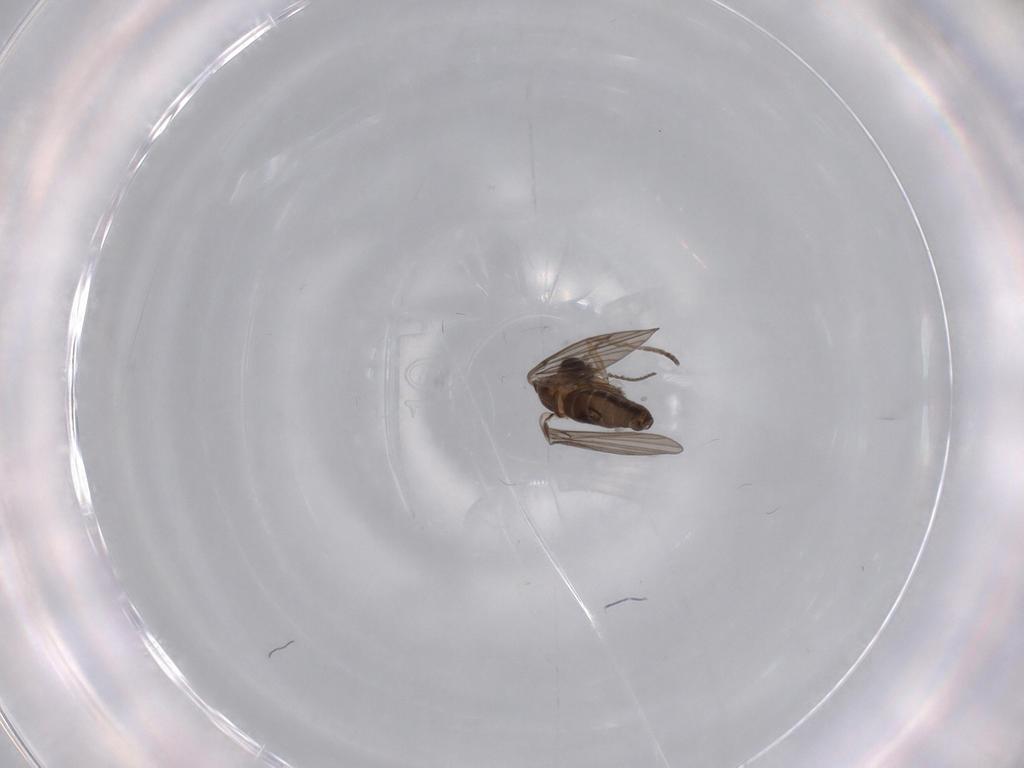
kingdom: Animalia
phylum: Arthropoda
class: Insecta
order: Diptera
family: Psychodidae
